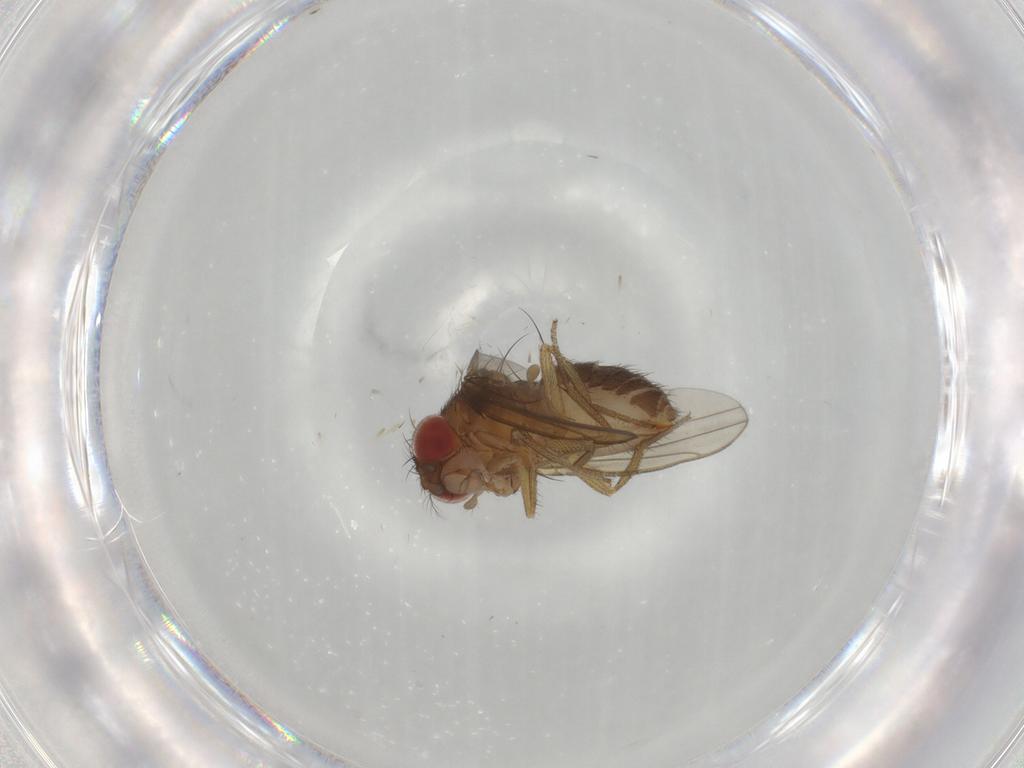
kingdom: Animalia
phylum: Arthropoda
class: Insecta
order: Diptera
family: Drosophilidae
